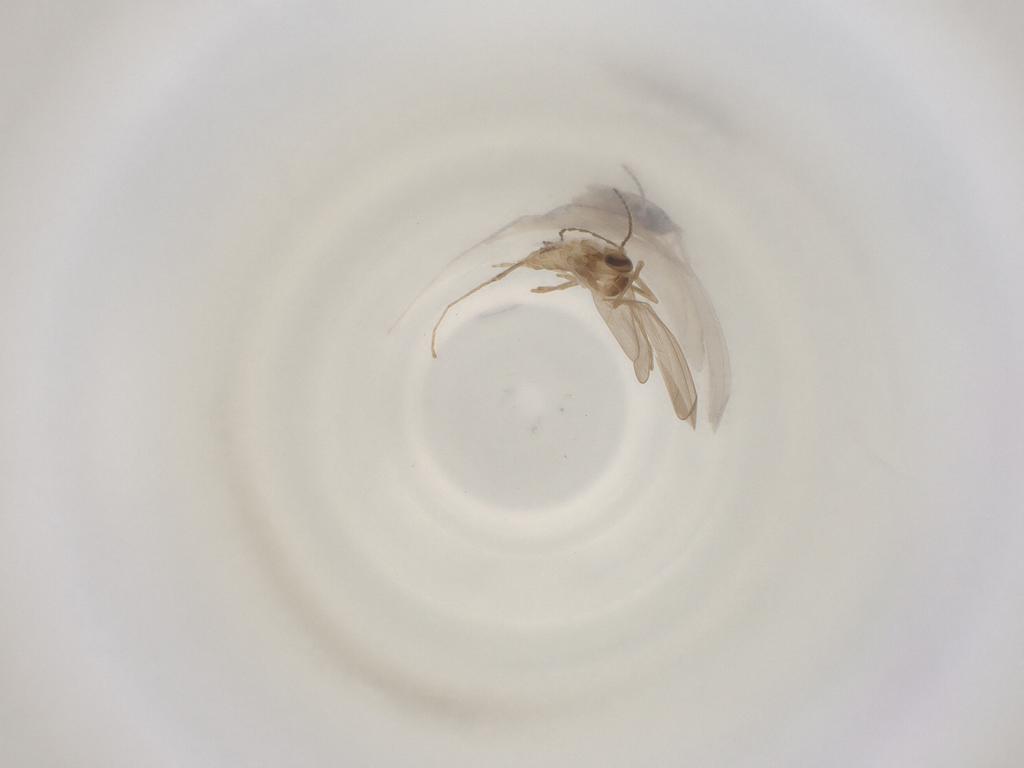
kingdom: Animalia
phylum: Arthropoda
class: Insecta
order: Diptera
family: Cecidomyiidae
